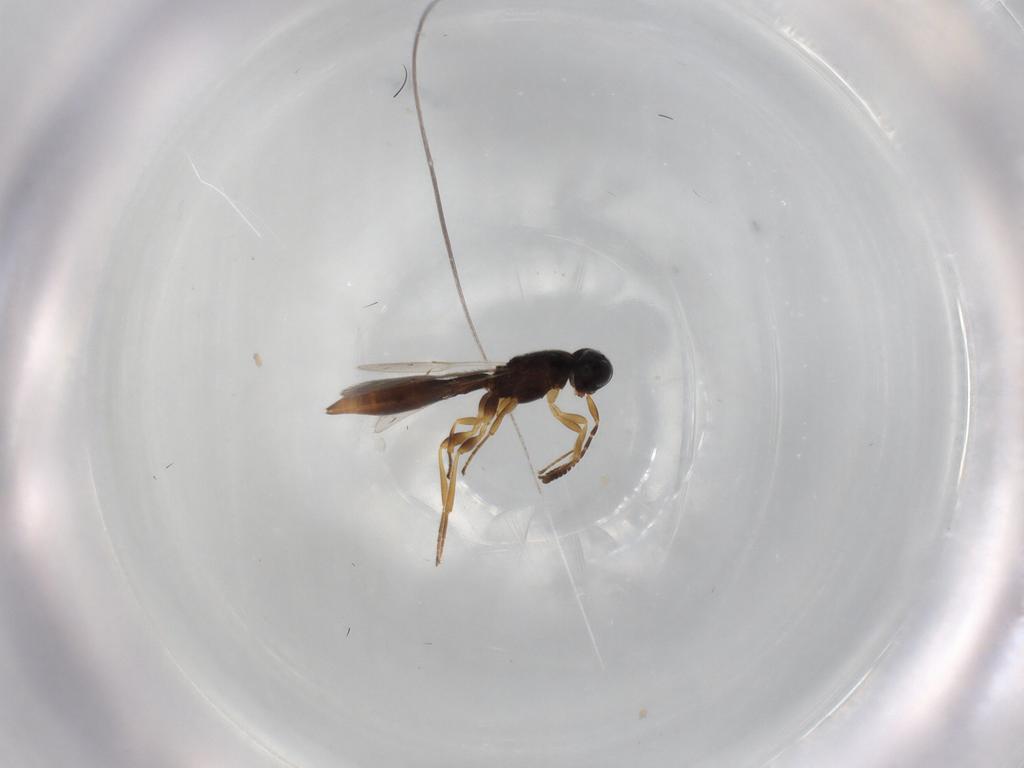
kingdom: Animalia
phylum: Arthropoda
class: Insecta
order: Hymenoptera
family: Scelionidae
